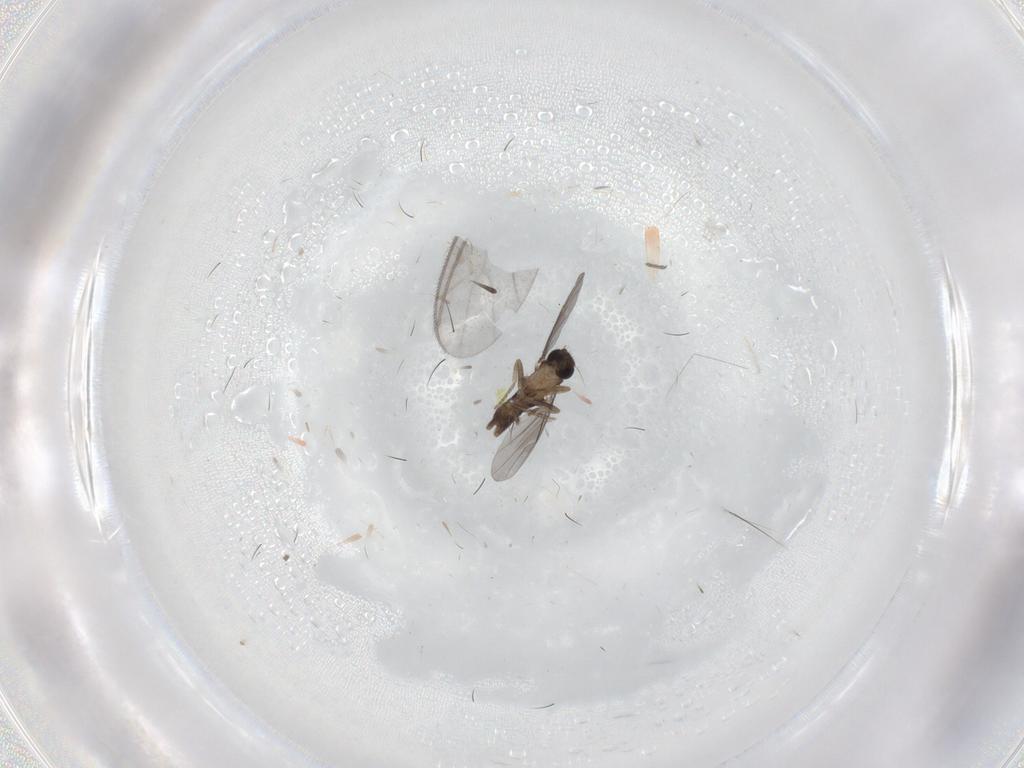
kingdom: Animalia
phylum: Arthropoda
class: Insecta
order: Diptera
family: Cecidomyiidae
